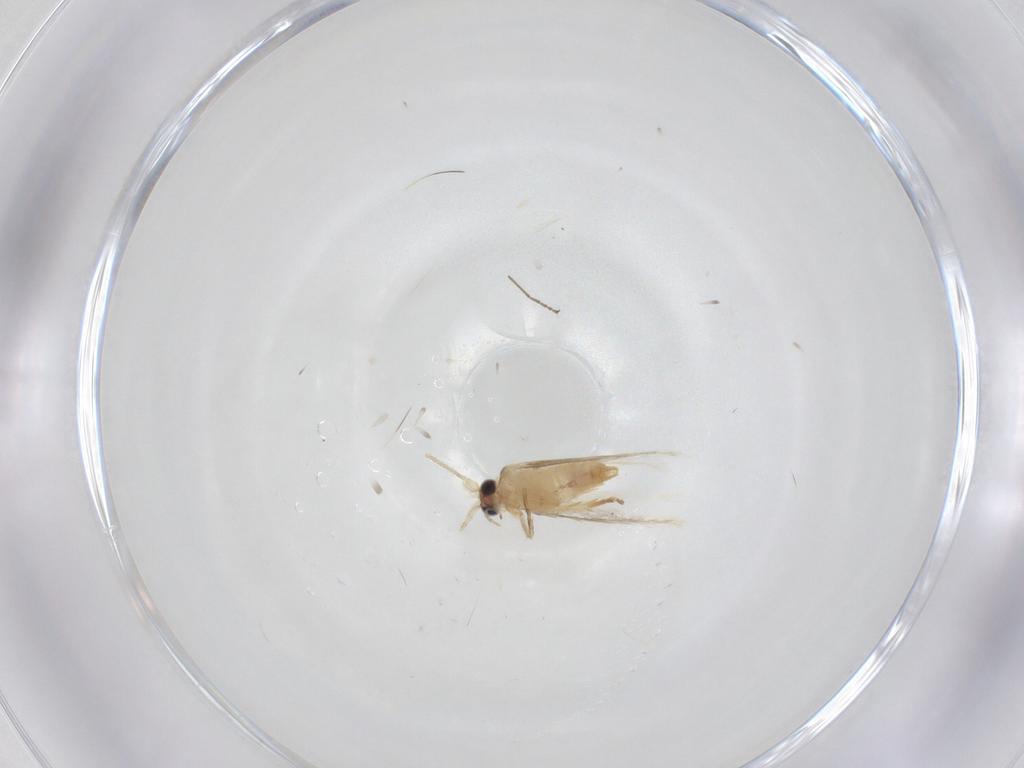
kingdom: Animalia
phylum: Arthropoda
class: Insecta
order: Lepidoptera
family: Nepticulidae
